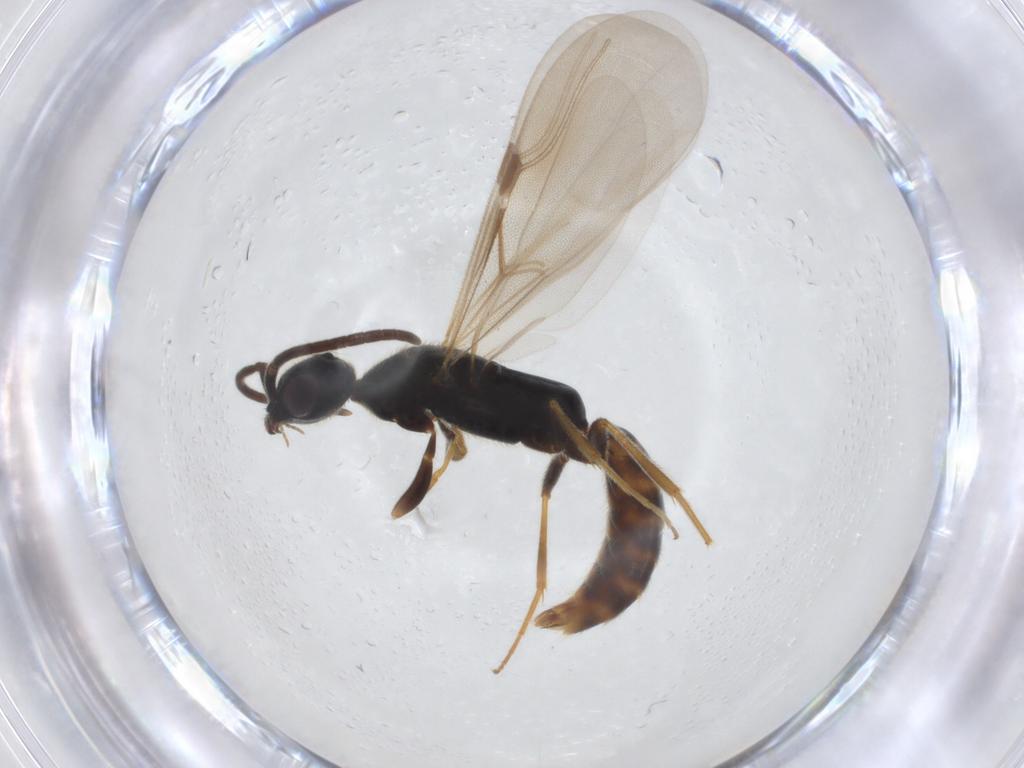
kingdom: Animalia
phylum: Arthropoda
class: Insecta
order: Hymenoptera
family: Bethylidae
